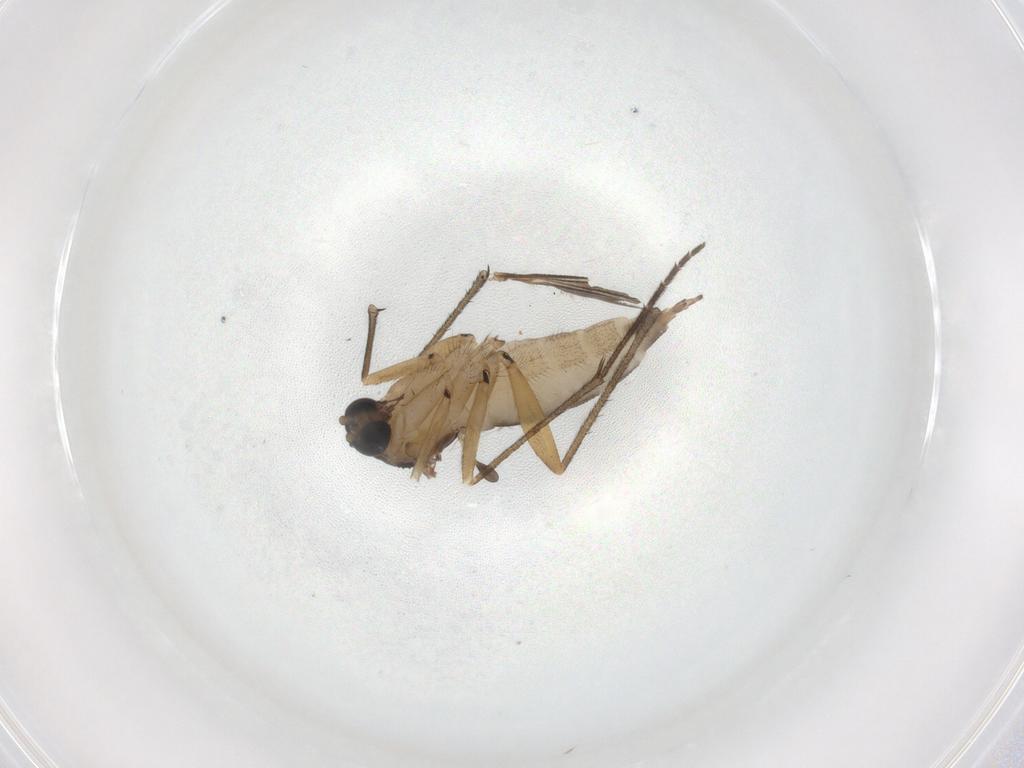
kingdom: Animalia
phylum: Arthropoda
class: Insecta
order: Diptera
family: Sciaridae
